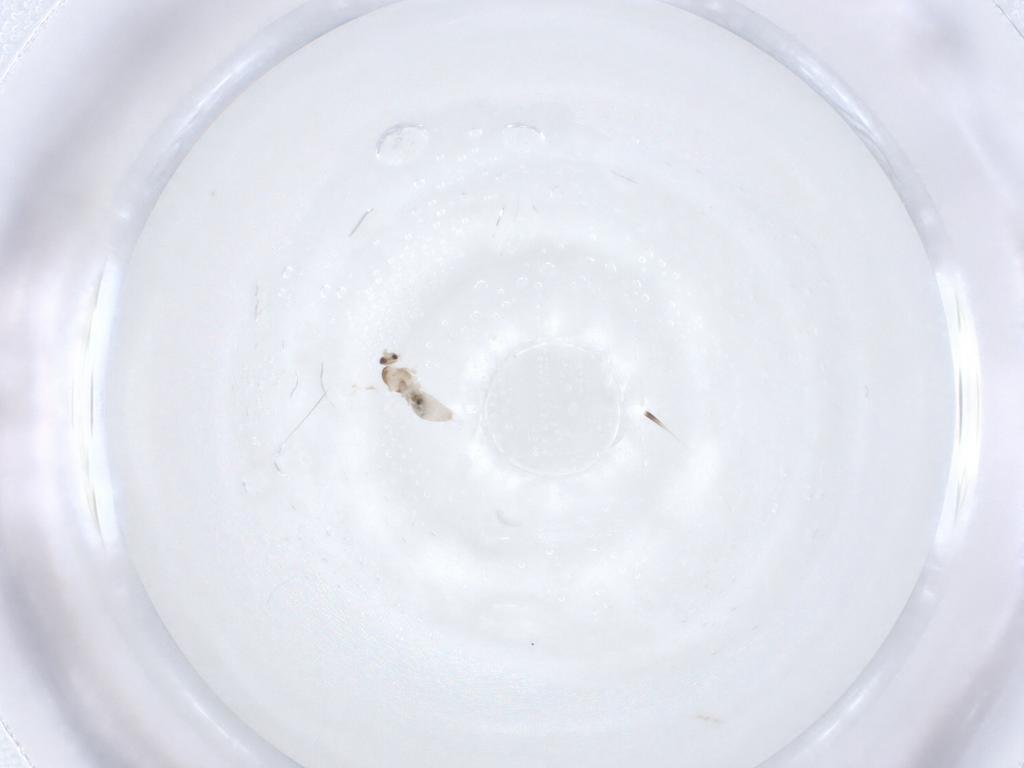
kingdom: Animalia
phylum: Arthropoda
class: Insecta
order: Diptera
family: Cecidomyiidae
